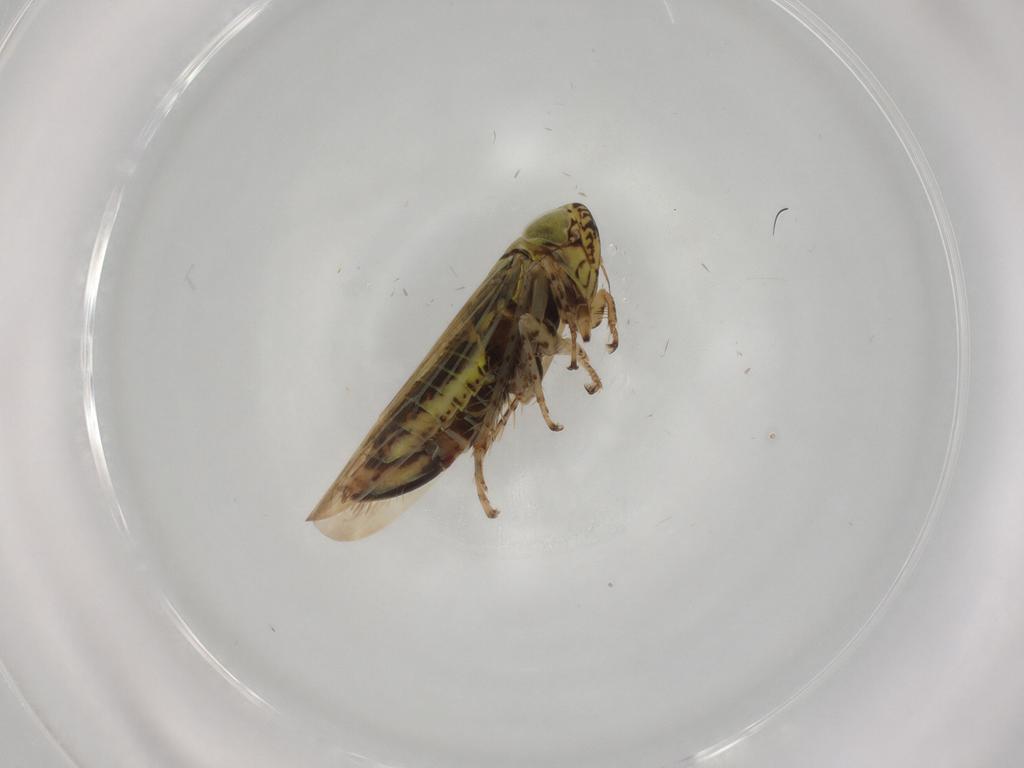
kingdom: Animalia
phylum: Arthropoda
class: Insecta
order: Hemiptera
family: Cicadellidae
